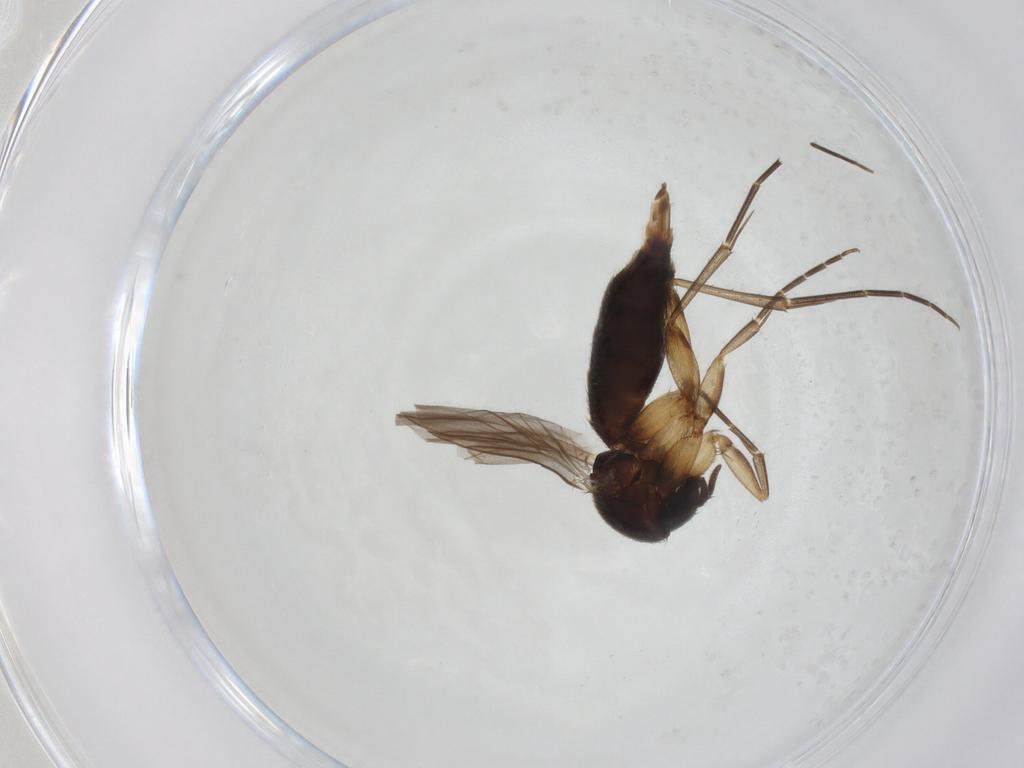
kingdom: Animalia
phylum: Arthropoda
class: Insecta
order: Diptera
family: Mycetophilidae
